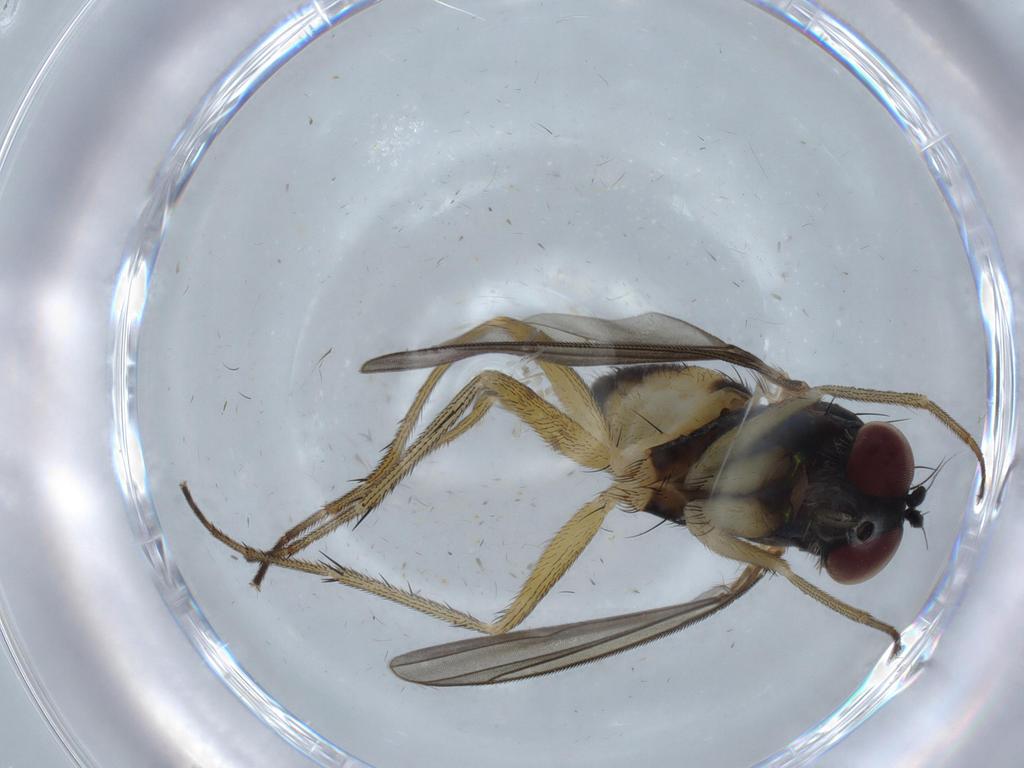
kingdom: Animalia
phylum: Arthropoda
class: Insecta
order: Diptera
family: Dolichopodidae
